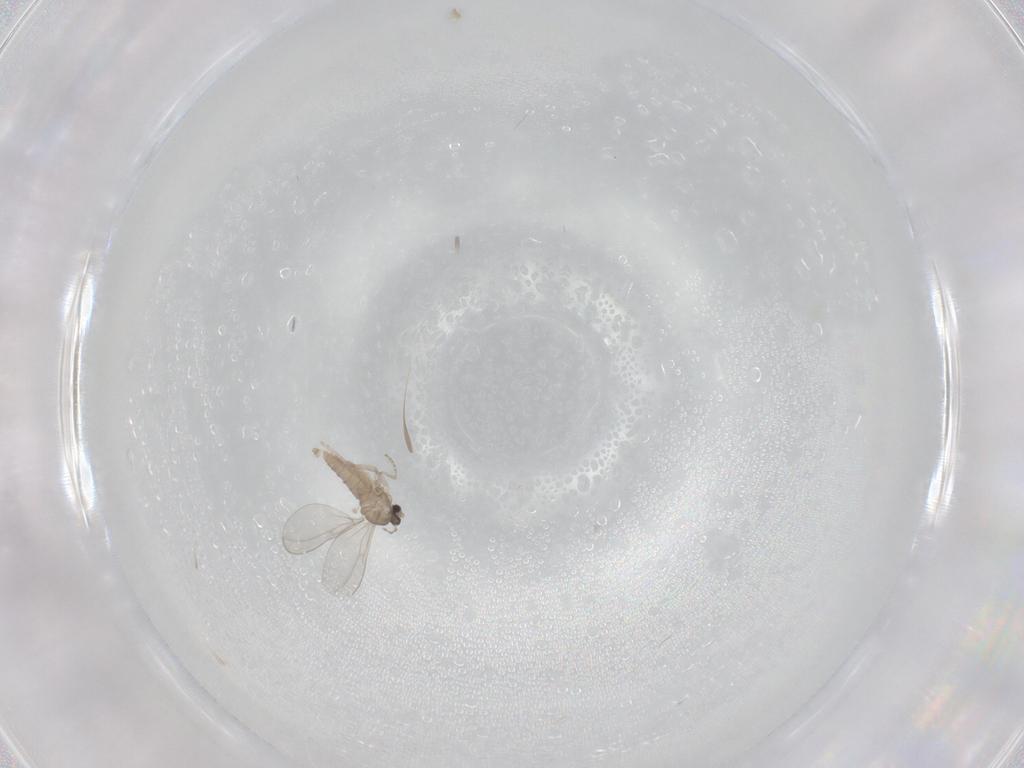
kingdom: Animalia
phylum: Arthropoda
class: Insecta
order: Diptera
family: Cecidomyiidae
